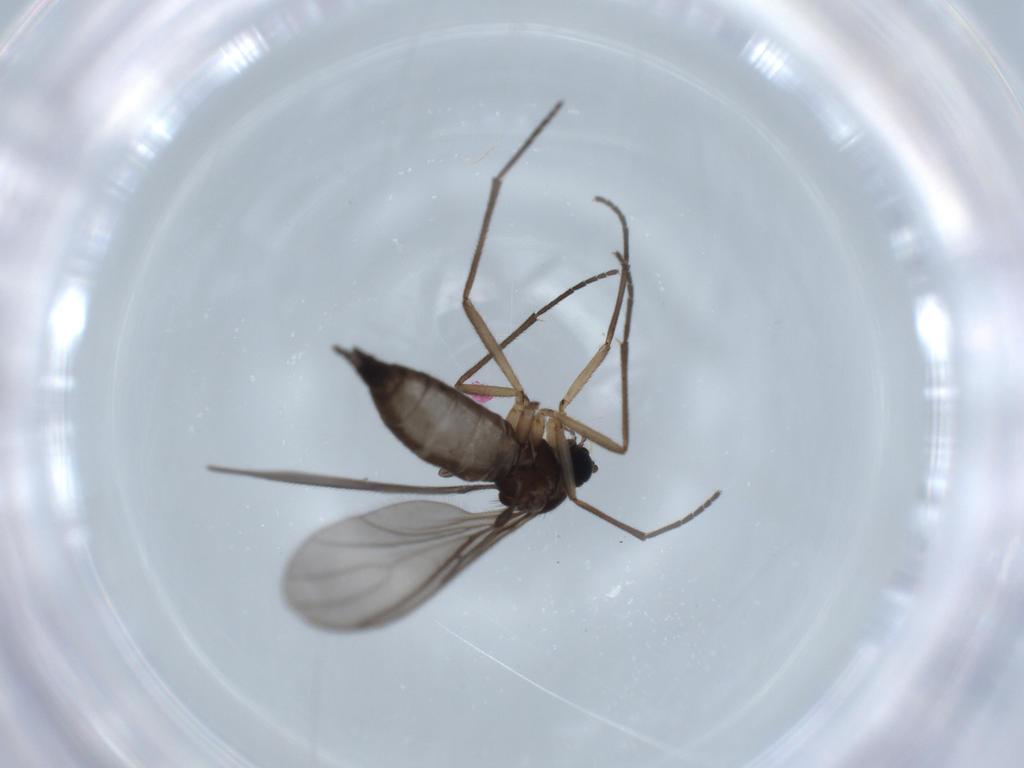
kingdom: Animalia
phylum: Arthropoda
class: Insecta
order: Diptera
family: Sciaridae
